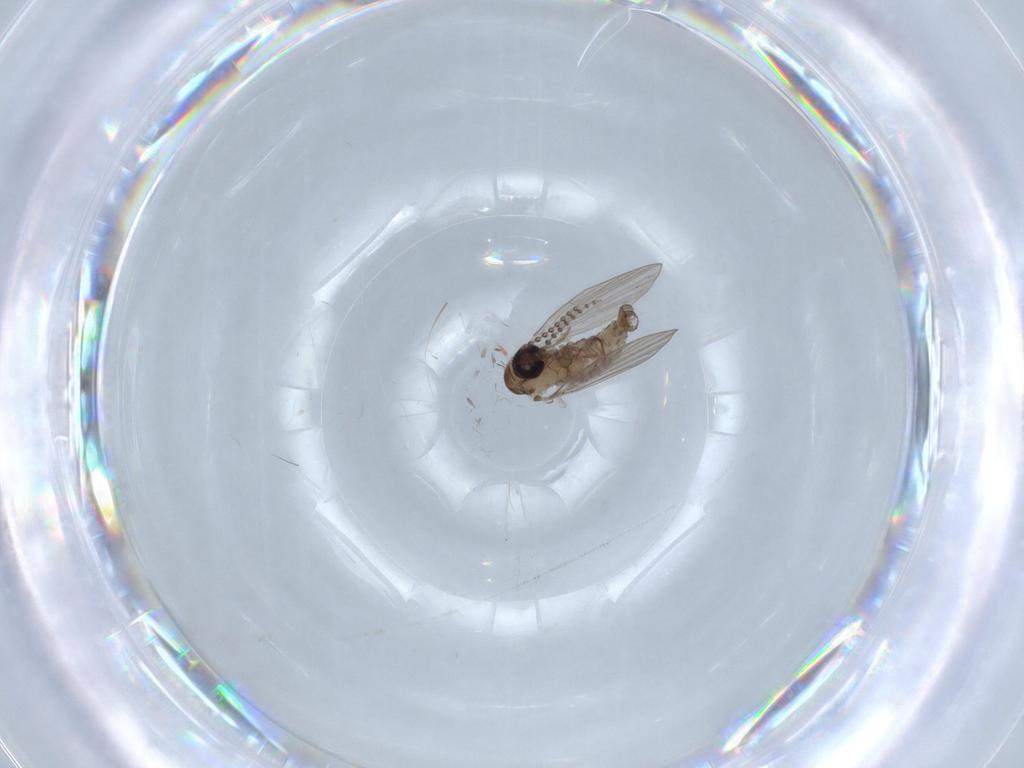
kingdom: Animalia
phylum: Arthropoda
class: Insecta
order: Diptera
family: Psychodidae
